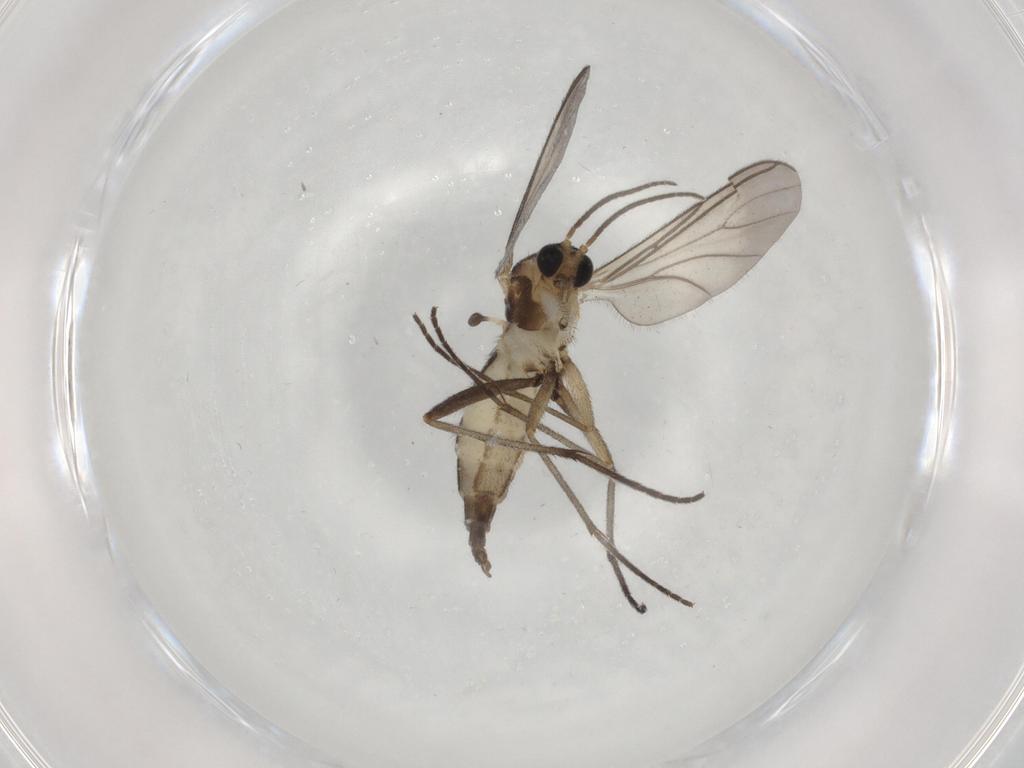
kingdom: Animalia
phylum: Arthropoda
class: Insecta
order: Diptera
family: Sciaridae
